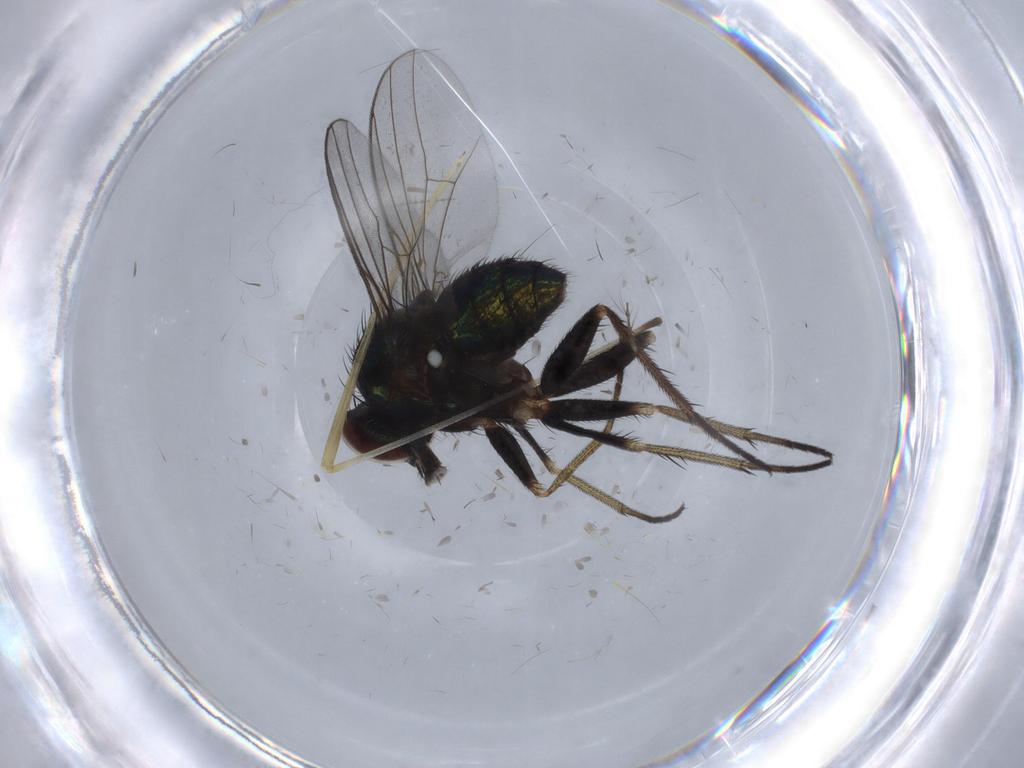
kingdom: Animalia
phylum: Arthropoda
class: Insecta
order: Diptera
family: Dolichopodidae
